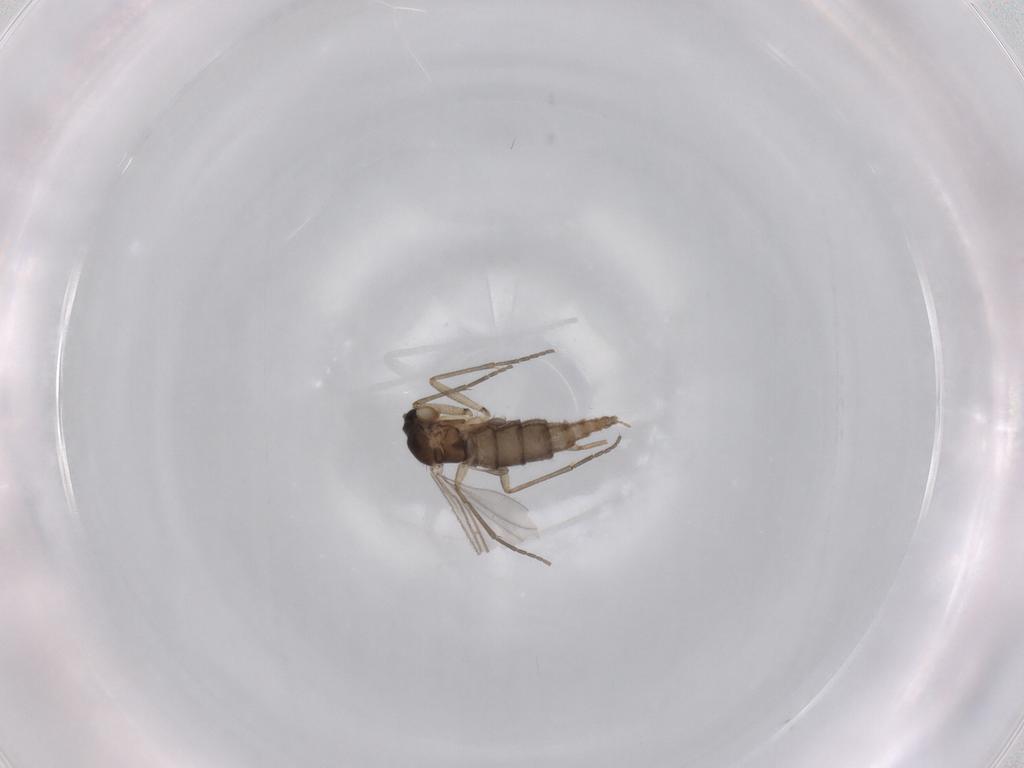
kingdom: Animalia
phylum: Arthropoda
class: Insecta
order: Diptera
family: Sciaridae
